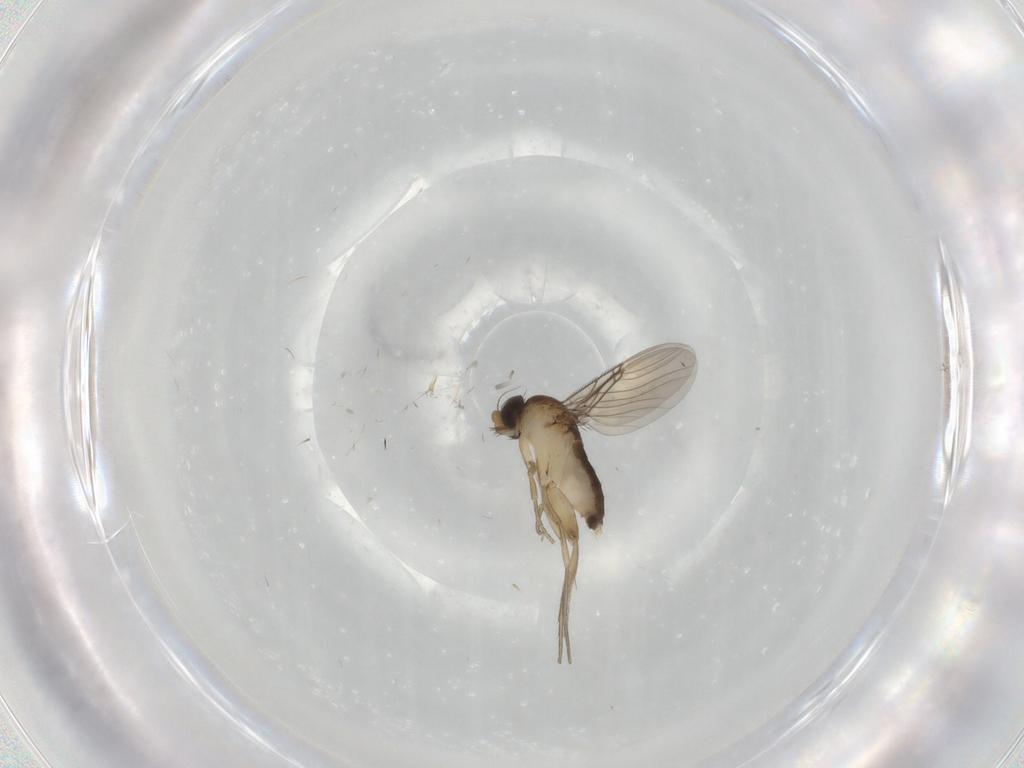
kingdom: Animalia
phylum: Arthropoda
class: Insecta
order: Diptera
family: Phoridae
